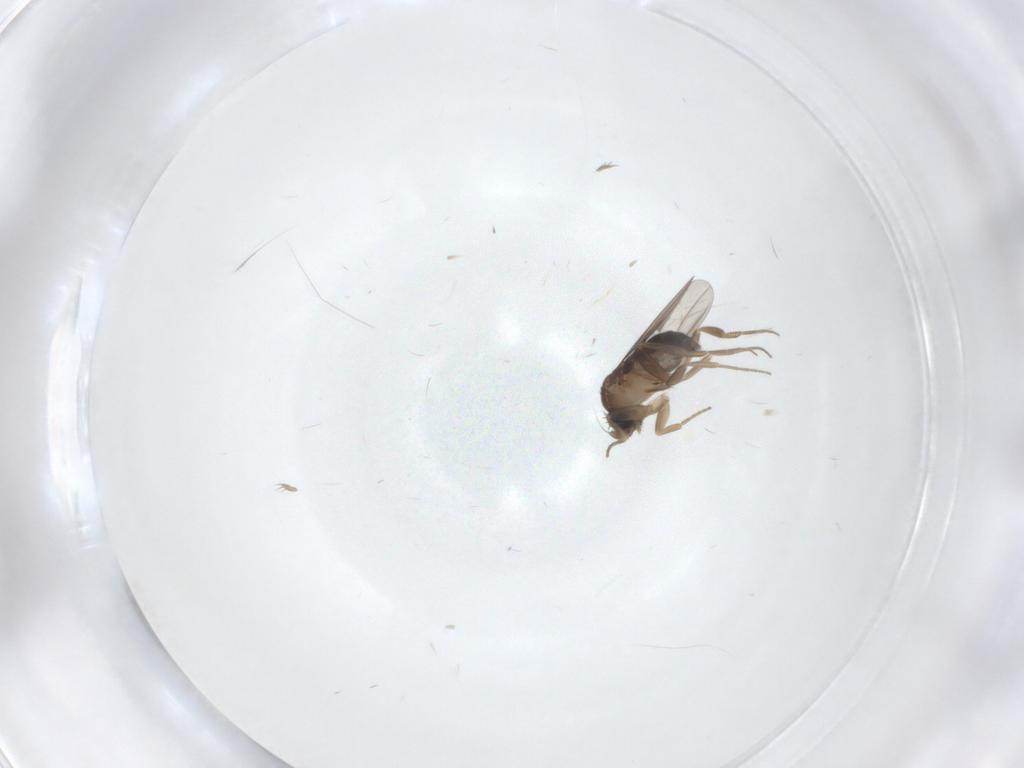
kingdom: Animalia
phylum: Arthropoda
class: Insecta
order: Diptera
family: Phoridae
